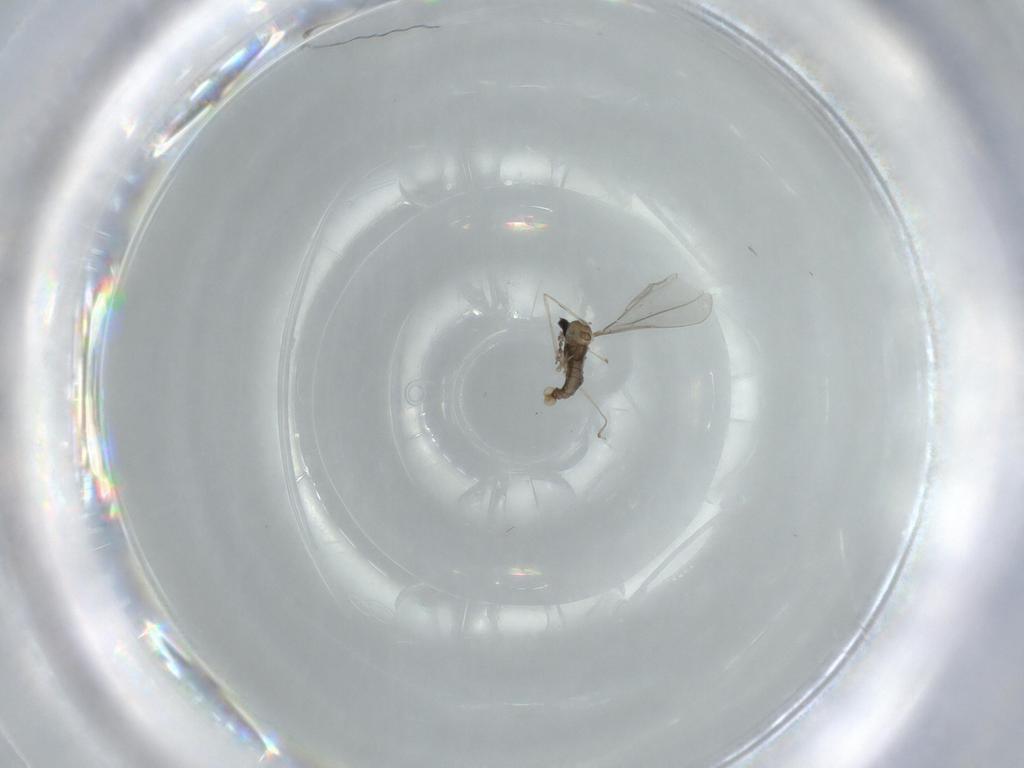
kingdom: Animalia
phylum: Arthropoda
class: Insecta
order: Diptera
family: Cecidomyiidae
